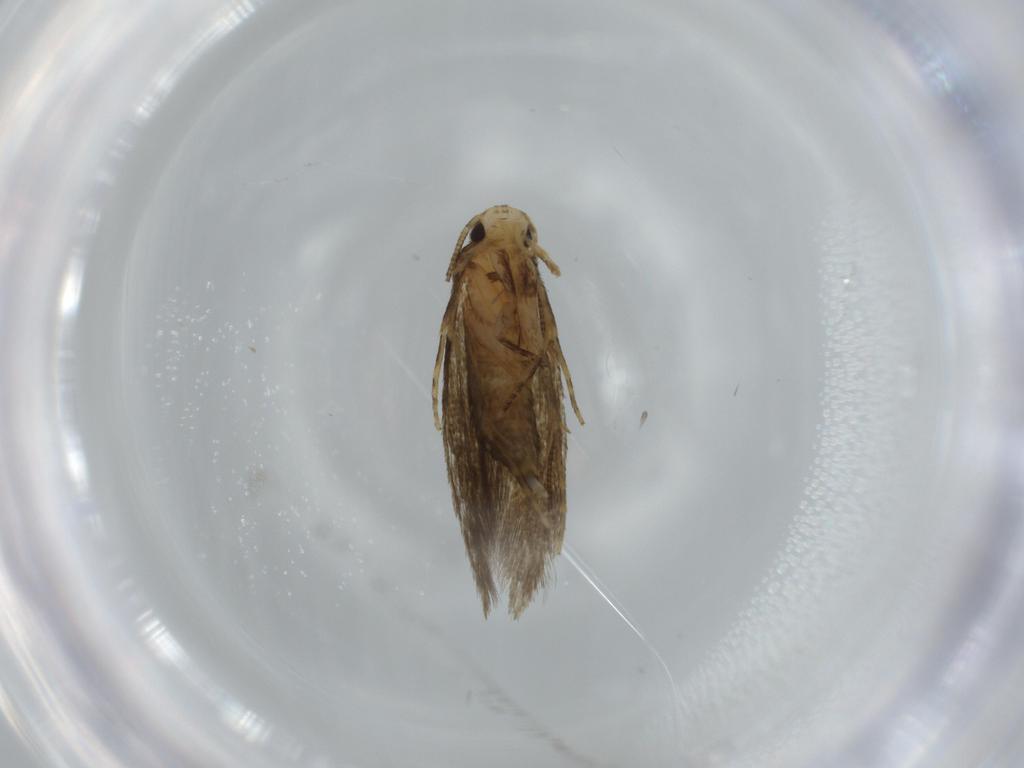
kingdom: Animalia
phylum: Arthropoda
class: Insecta
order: Lepidoptera
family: Tineidae
